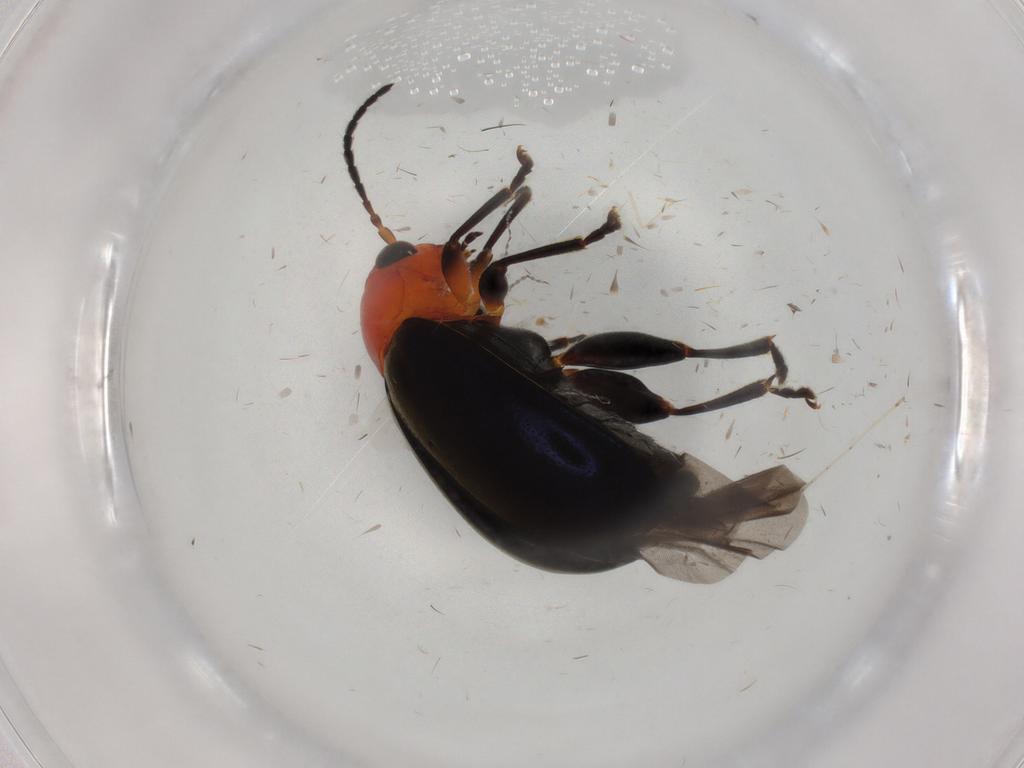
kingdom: Animalia
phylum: Arthropoda
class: Insecta
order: Coleoptera
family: Chrysomelidae
